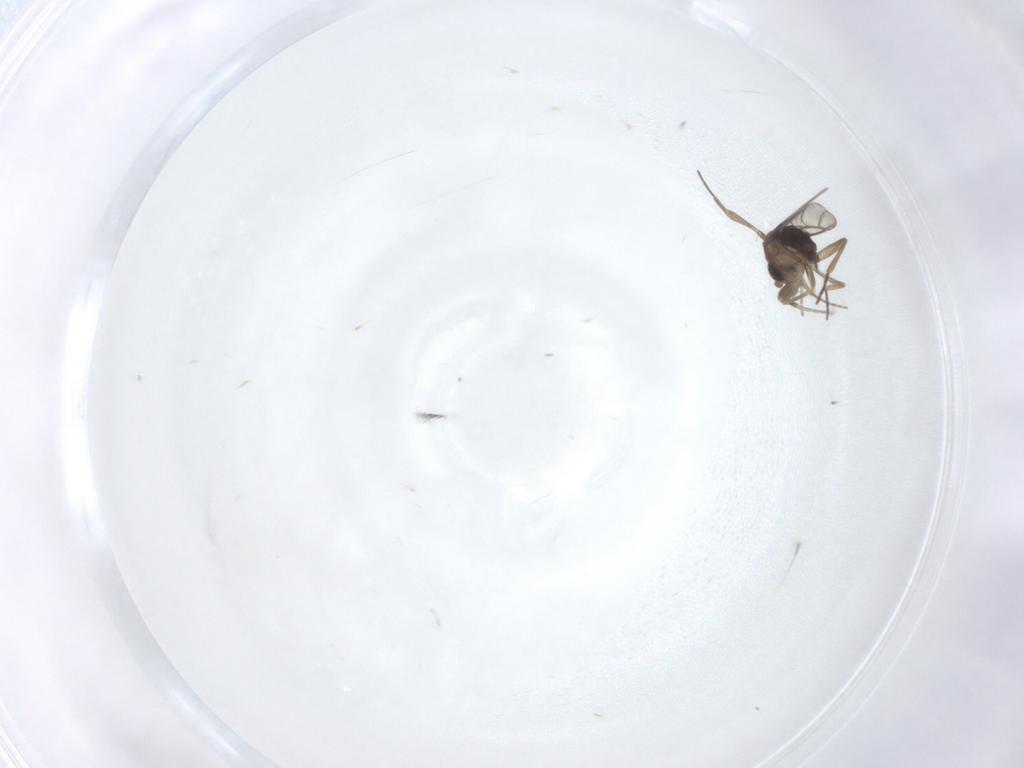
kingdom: Animalia
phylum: Arthropoda
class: Insecta
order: Diptera
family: Phoridae
